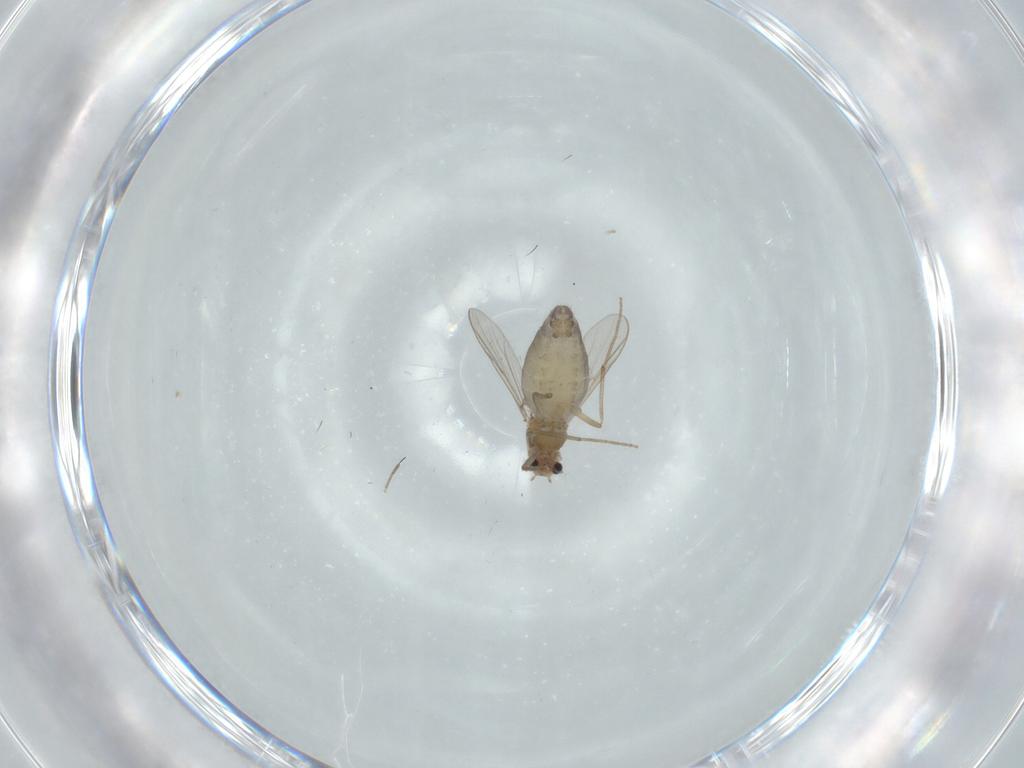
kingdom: Animalia
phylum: Arthropoda
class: Insecta
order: Diptera
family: Chironomidae
